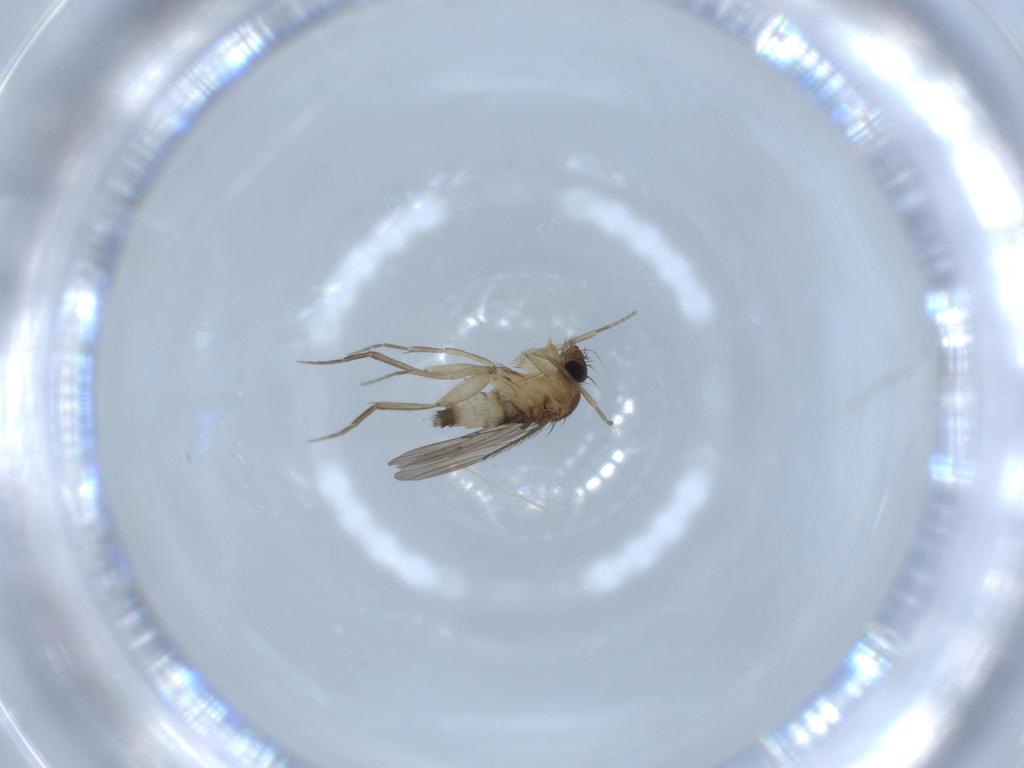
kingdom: Animalia
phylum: Arthropoda
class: Insecta
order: Diptera
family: Phoridae
